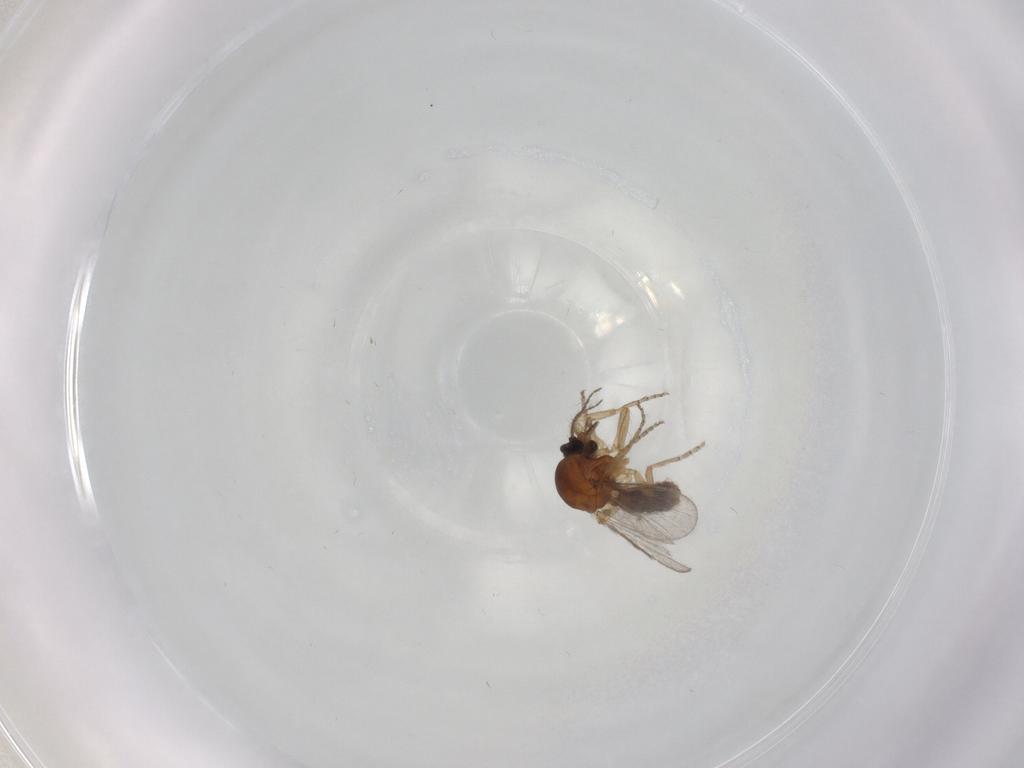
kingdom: Animalia
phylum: Arthropoda
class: Insecta
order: Diptera
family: Ceratopogonidae
